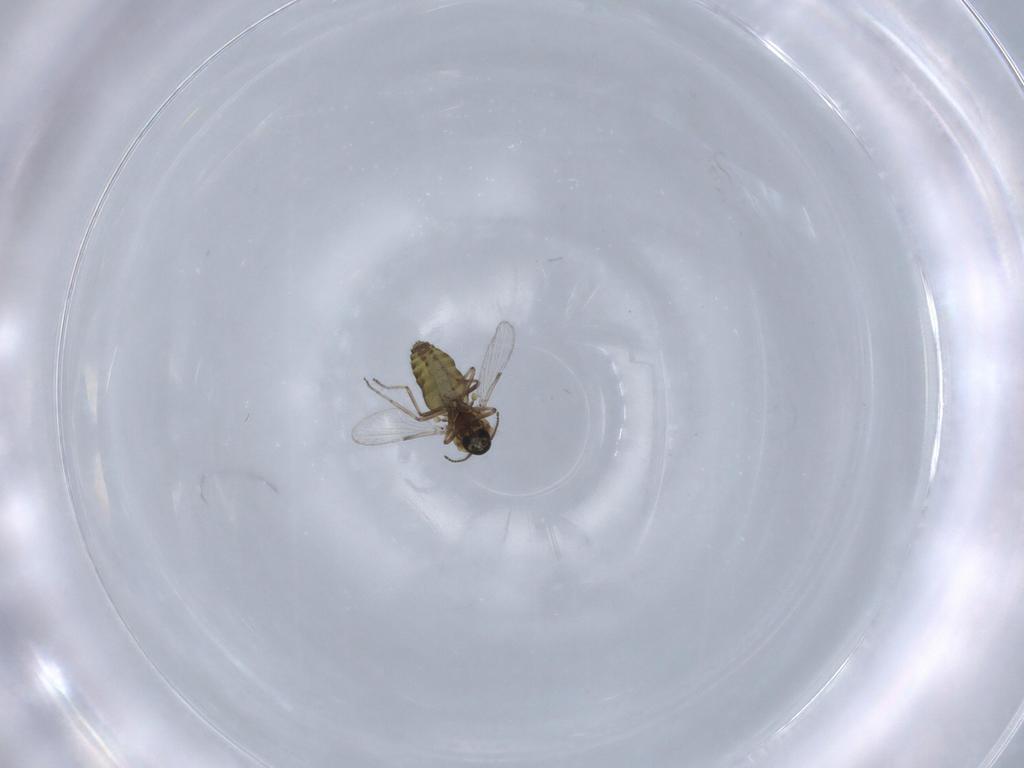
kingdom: Animalia
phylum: Arthropoda
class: Insecta
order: Diptera
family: Ceratopogonidae
